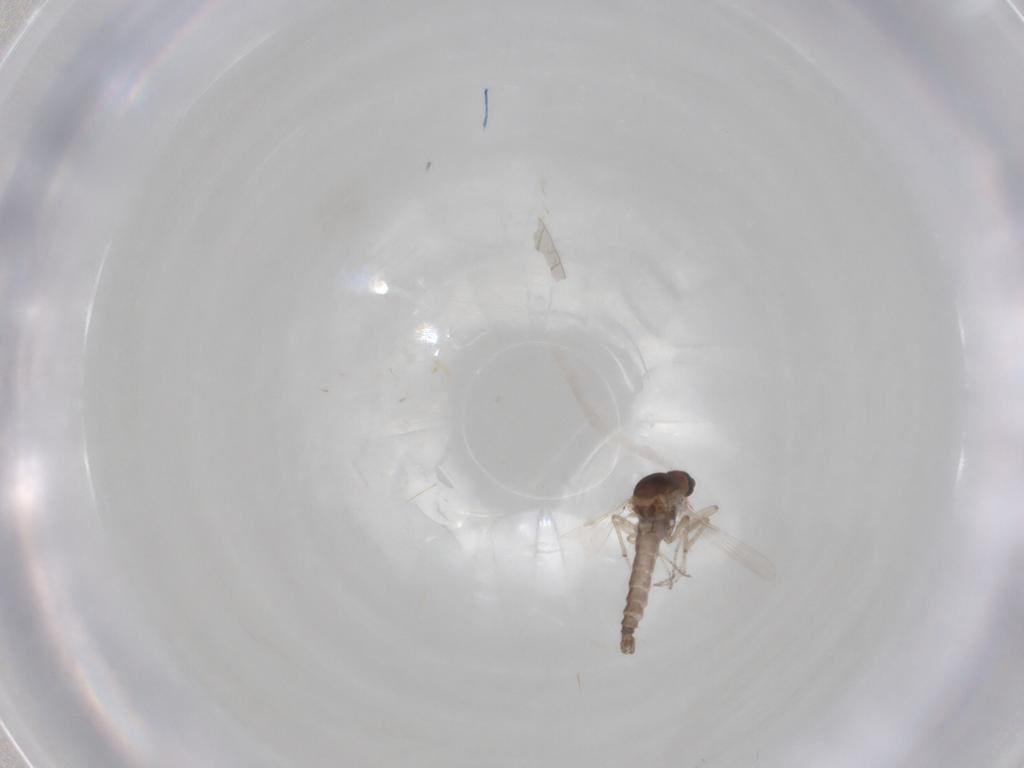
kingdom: Animalia
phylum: Arthropoda
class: Insecta
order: Diptera
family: Ceratopogonidae
